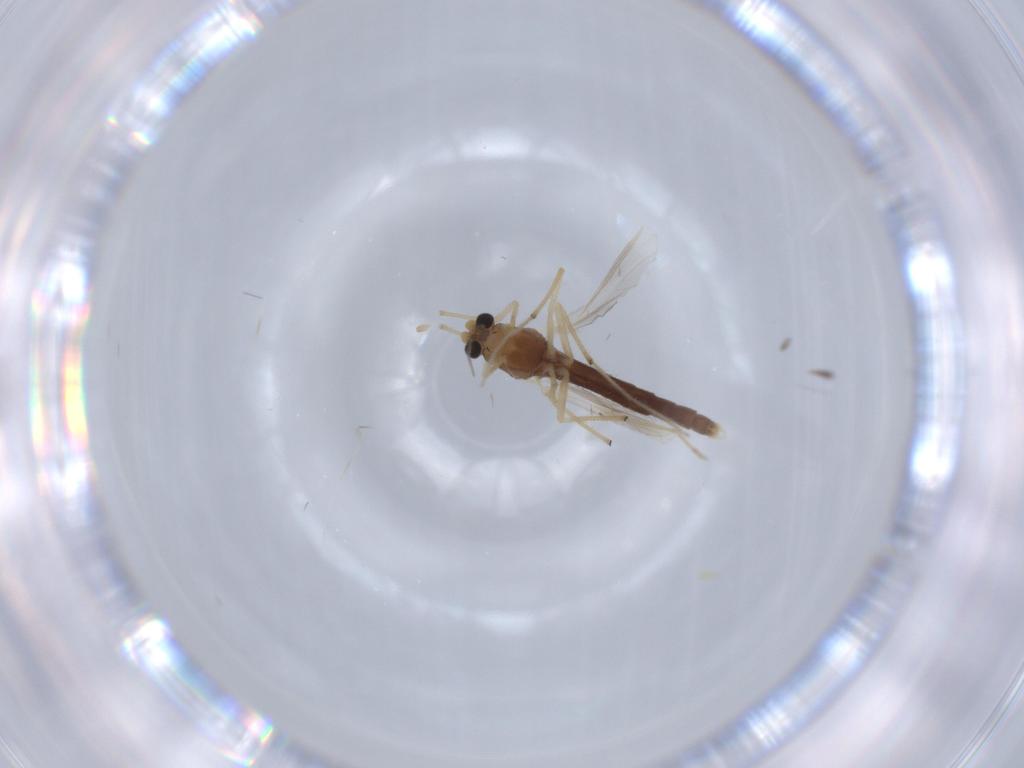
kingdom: Animalia
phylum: Arthropoda
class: Insecta
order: Diptera
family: Chironomidae
